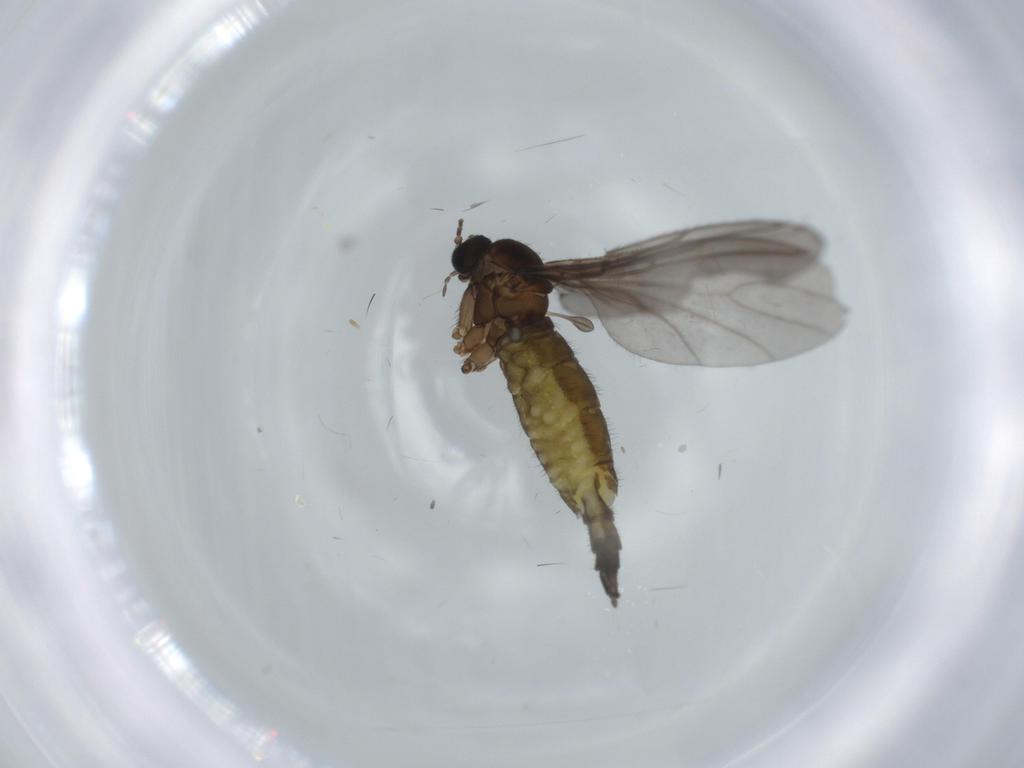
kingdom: Animalia
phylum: Arthropoda
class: Insecta
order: Diptera
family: Sciaridae
